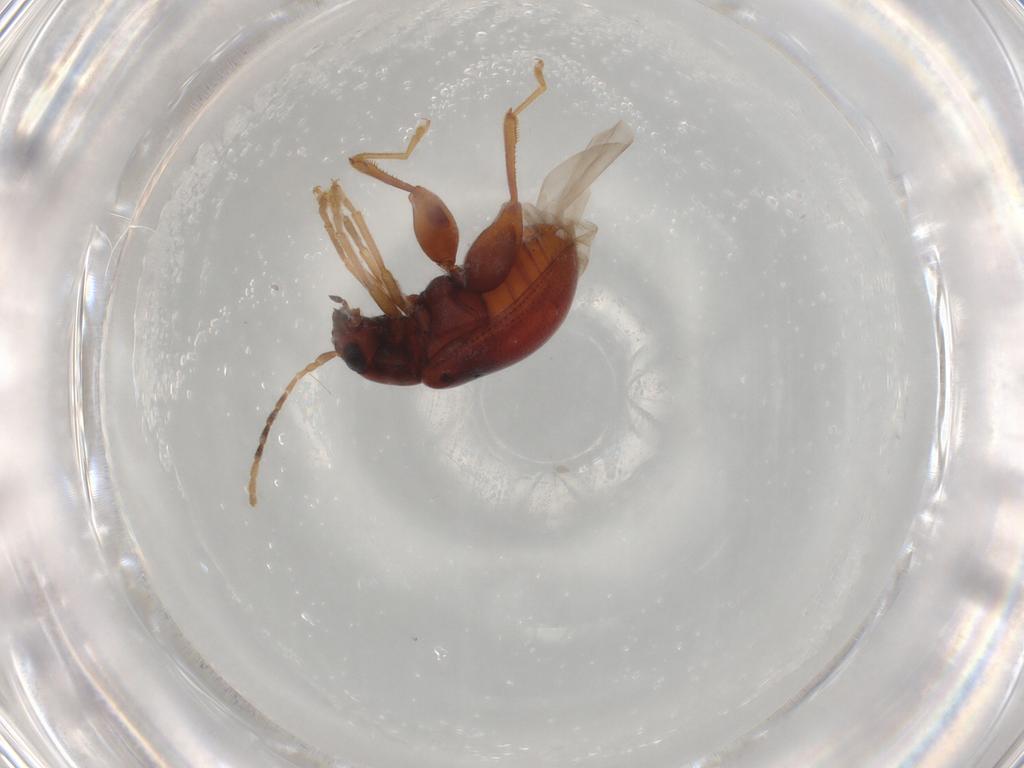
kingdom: Animalia
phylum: Arthropoda
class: Insecta
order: Coleoptera
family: Chrysomelidae
